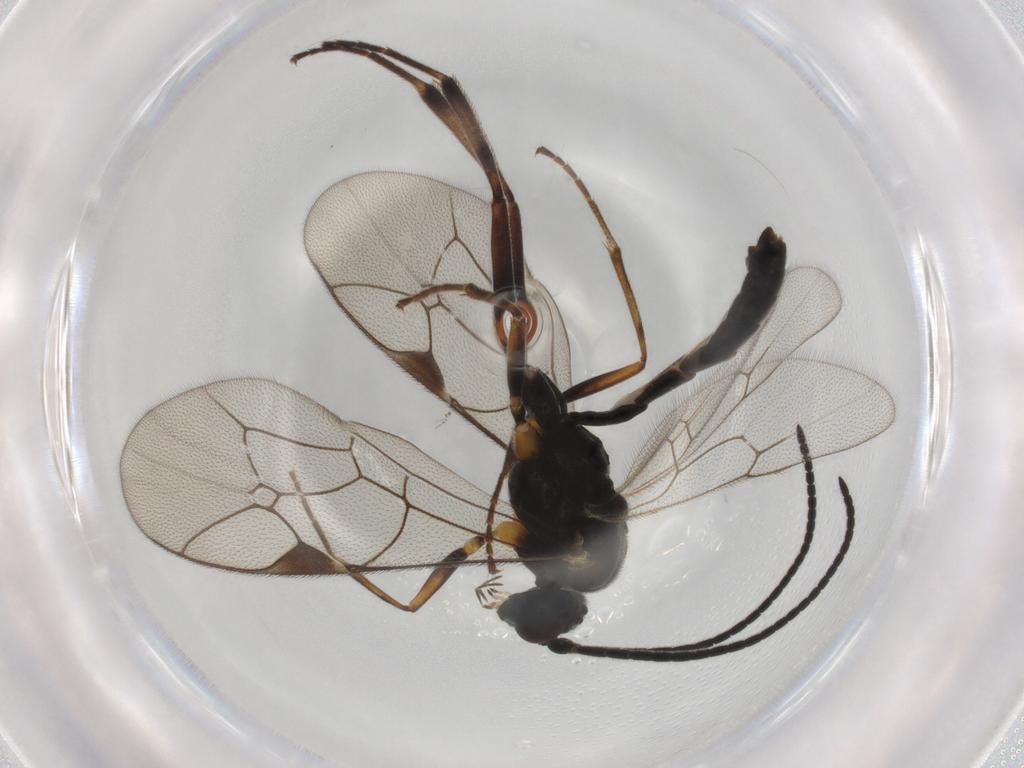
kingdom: Animalia
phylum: Arthropoda
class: Insecta
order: Hymenoptera
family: Ichneumonidae
